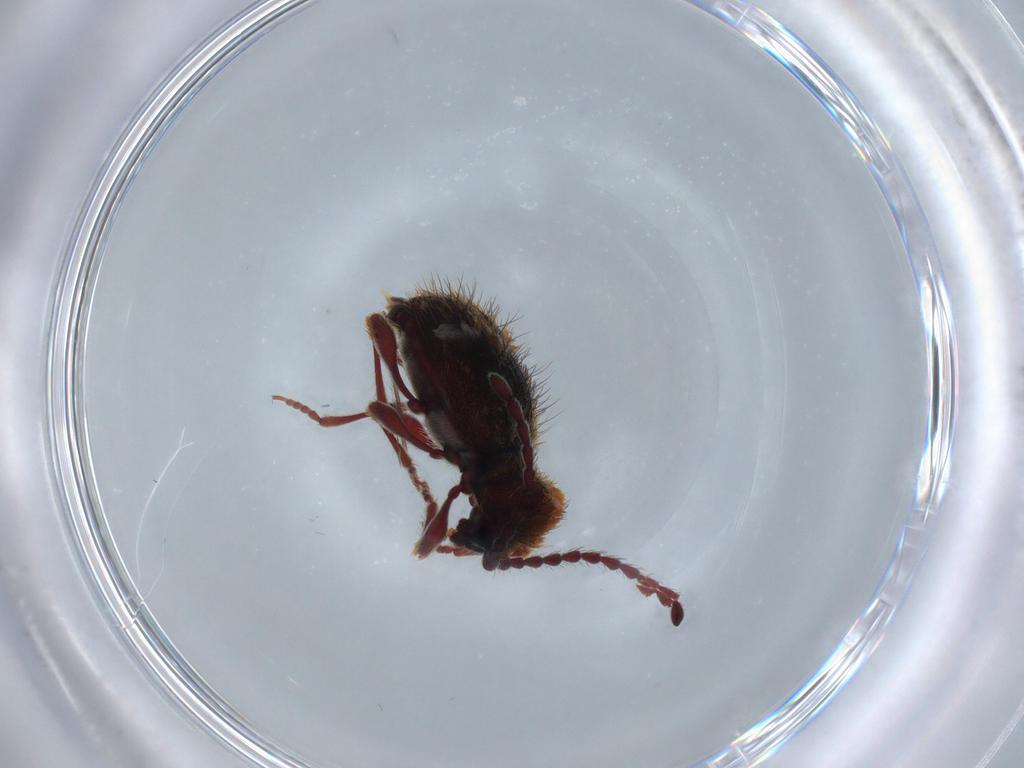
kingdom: Animalia
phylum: Arthropoda
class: Insecta
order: Coleoptera
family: Ptinidae
